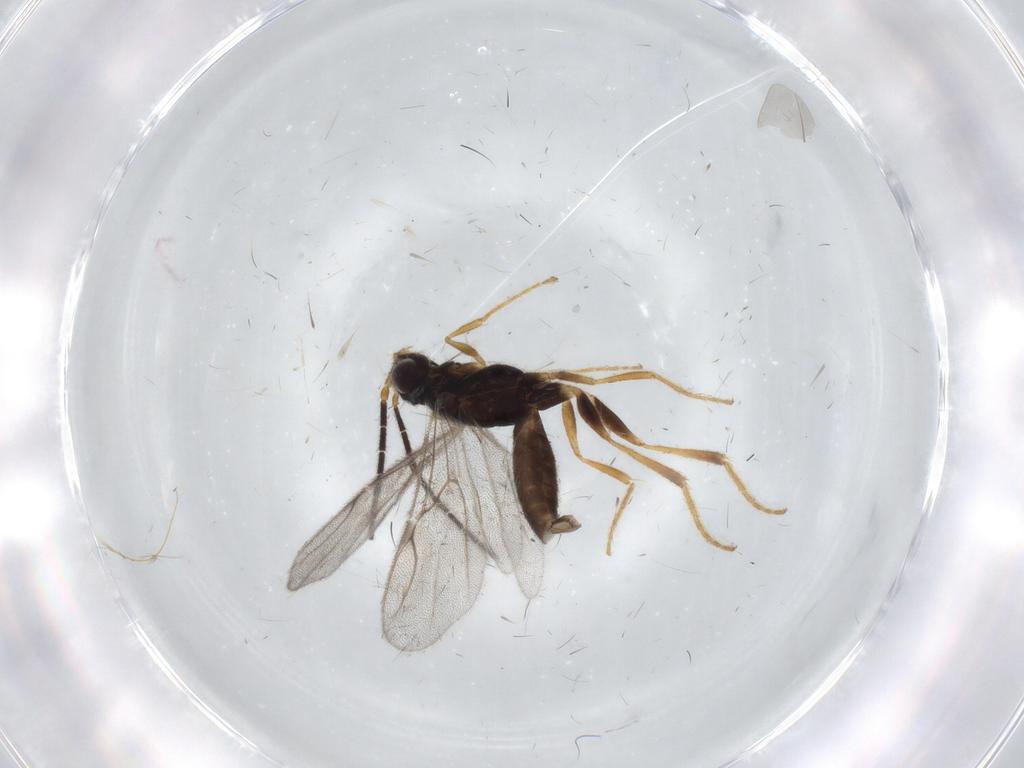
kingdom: Animalia
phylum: Arthropoda
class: Insecta
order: Hymenoptera
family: Dryinidae
